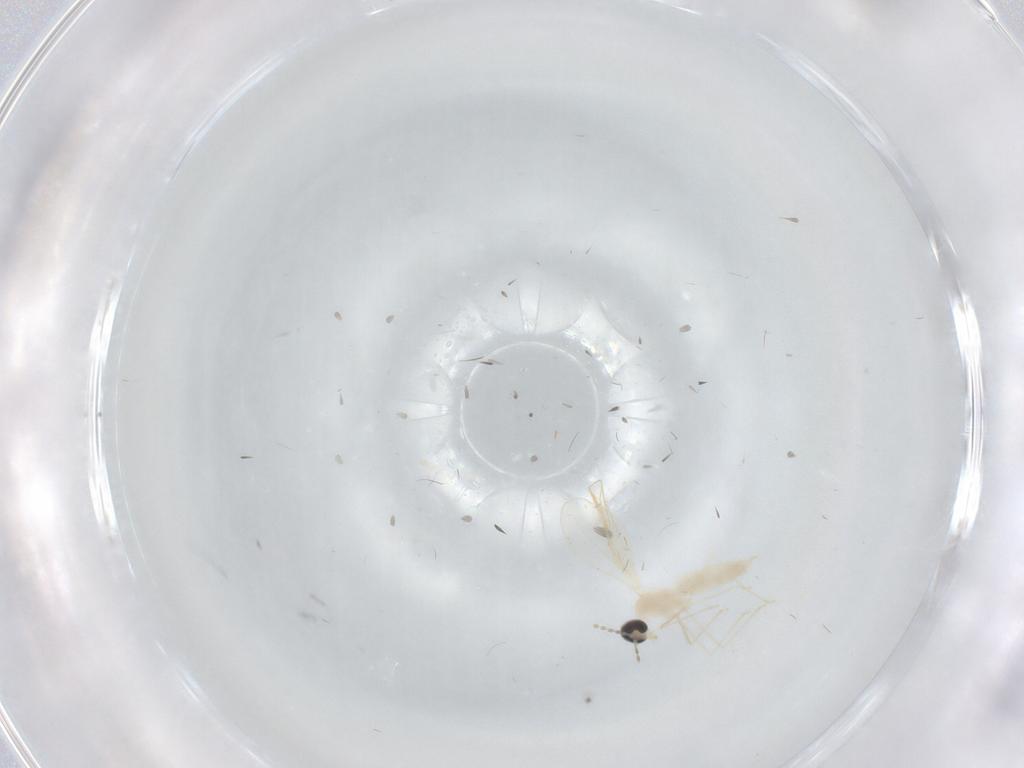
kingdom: Animalia
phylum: Arthropoda
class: Insecta
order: Diptera
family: Cecidomyiidae
